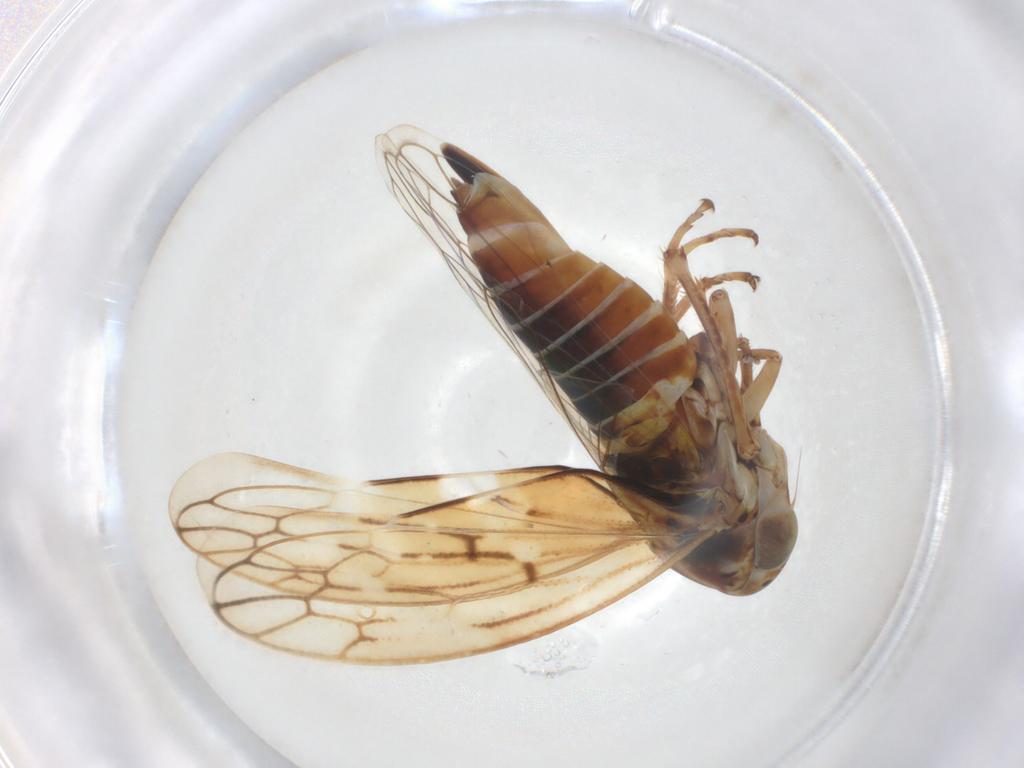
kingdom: Animalia
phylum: Arthropoda
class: Insecta
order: Hemiptera
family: Cicadellidae
